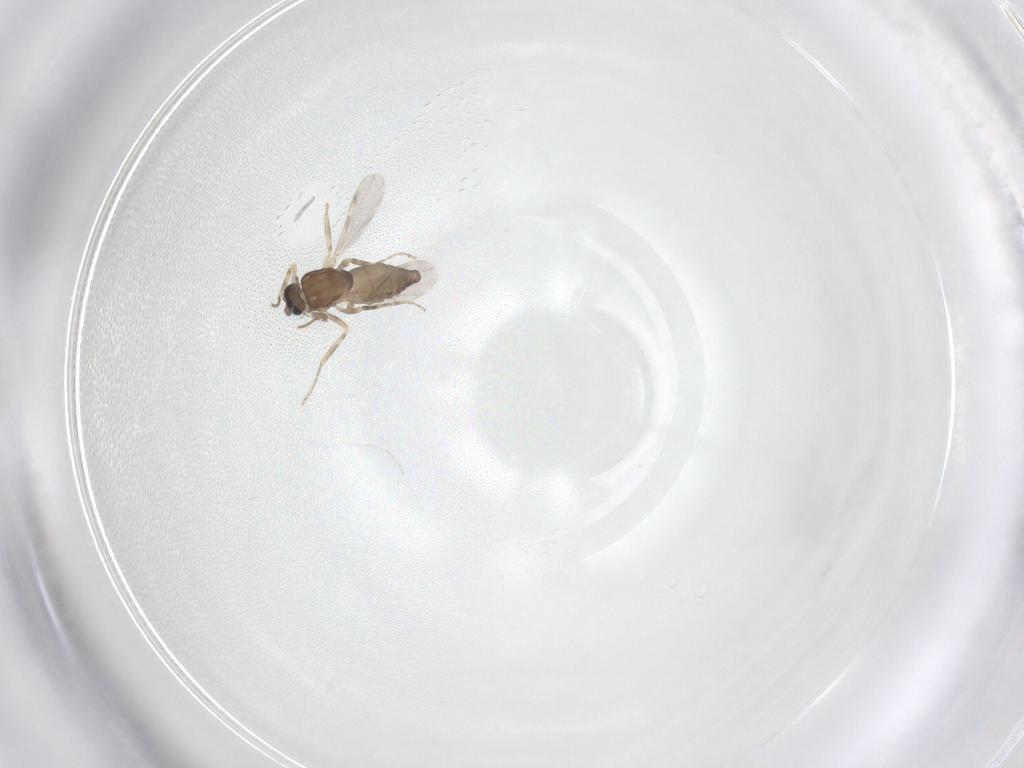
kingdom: Animalia
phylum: Arthropoda
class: Insecta
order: Diptera
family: Ceratopogonidae
